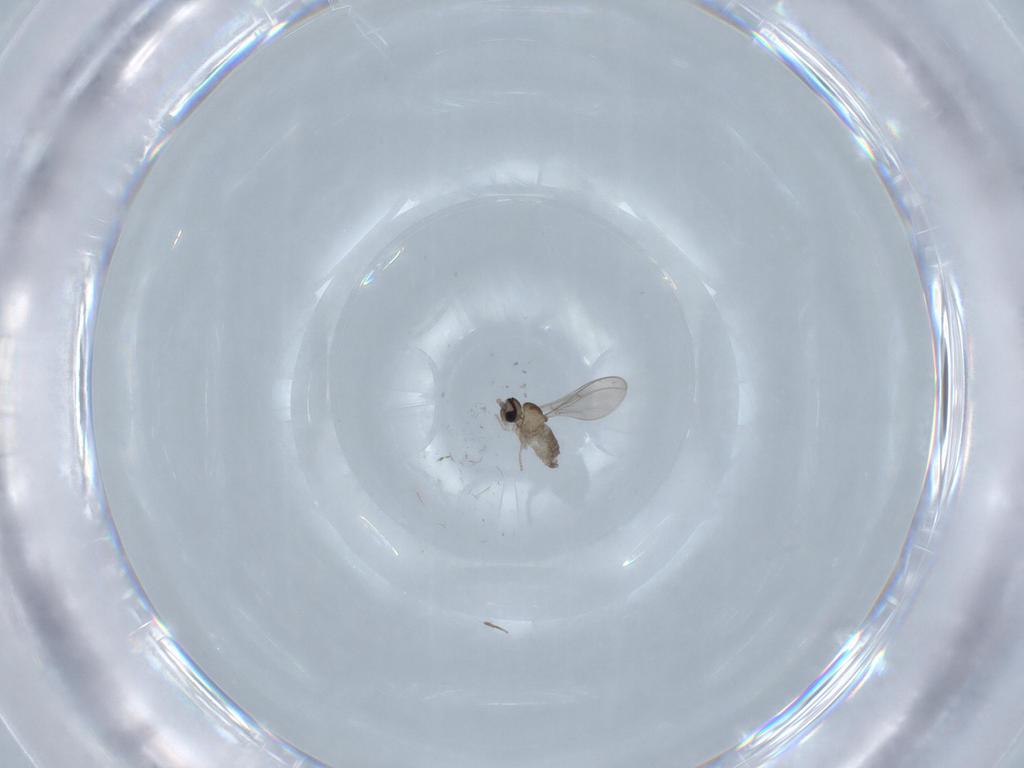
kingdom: Animalia
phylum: Arthropoda
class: Insecta
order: Diptera
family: Cecidomyiidae
